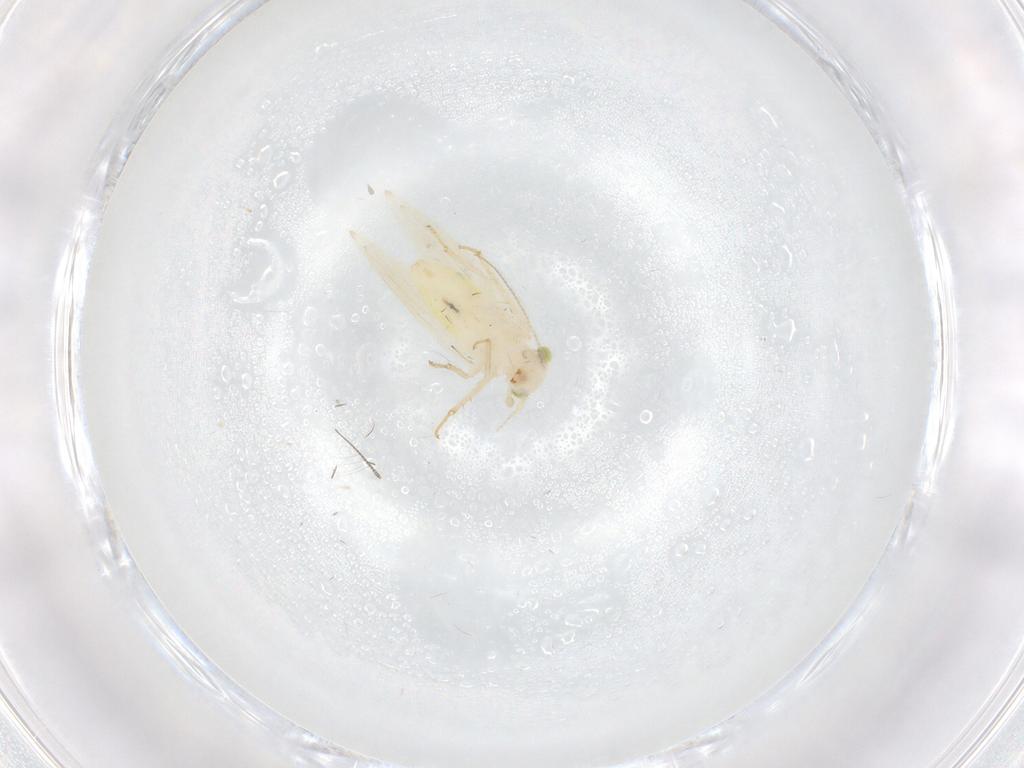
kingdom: Animalia
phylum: Arthropoda
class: Insecta
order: Psocodea
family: Lepidopsocidae
